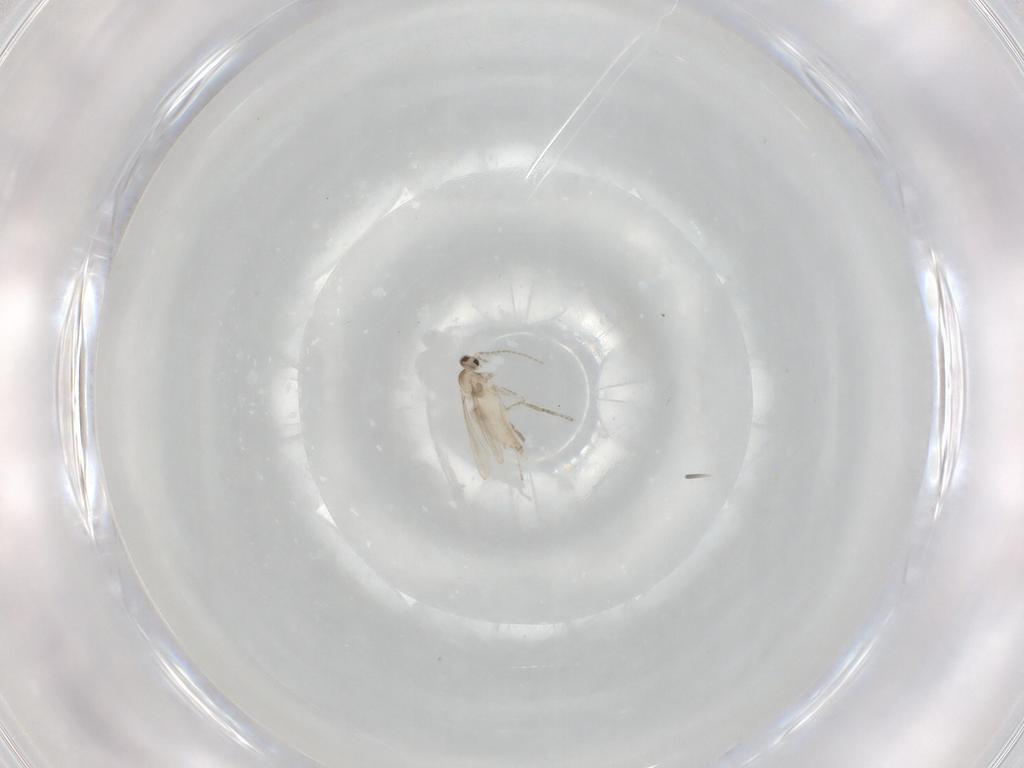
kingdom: Animalia
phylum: Arthropoda
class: Insecta
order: Diptera
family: Cecidomyiidae
